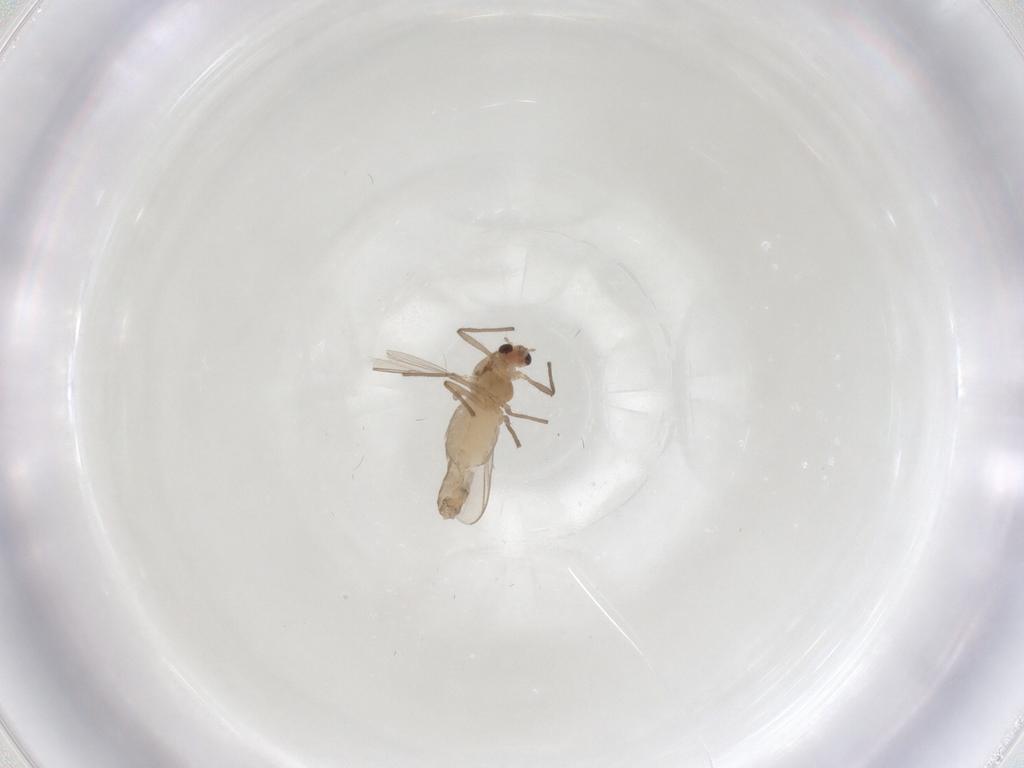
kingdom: Animalia
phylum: Arthropoda
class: Insecta
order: Diptera
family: Chironomidae
